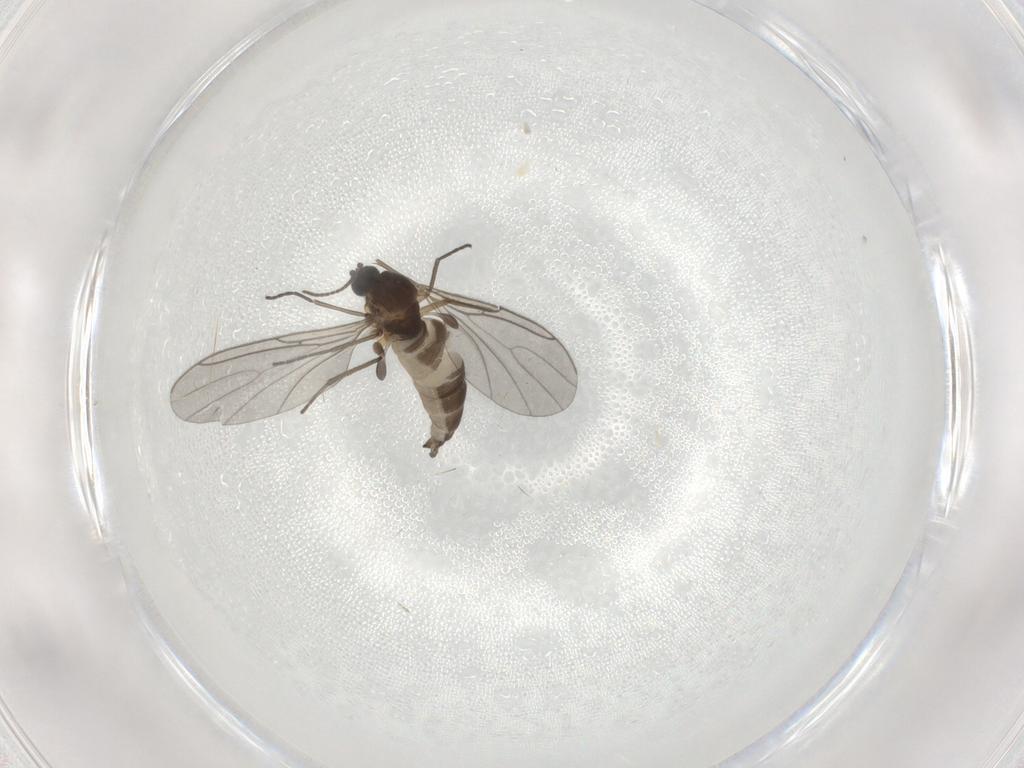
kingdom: Animalia
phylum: Arthropoda
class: Insecta
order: Diptera
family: Sciaridae
